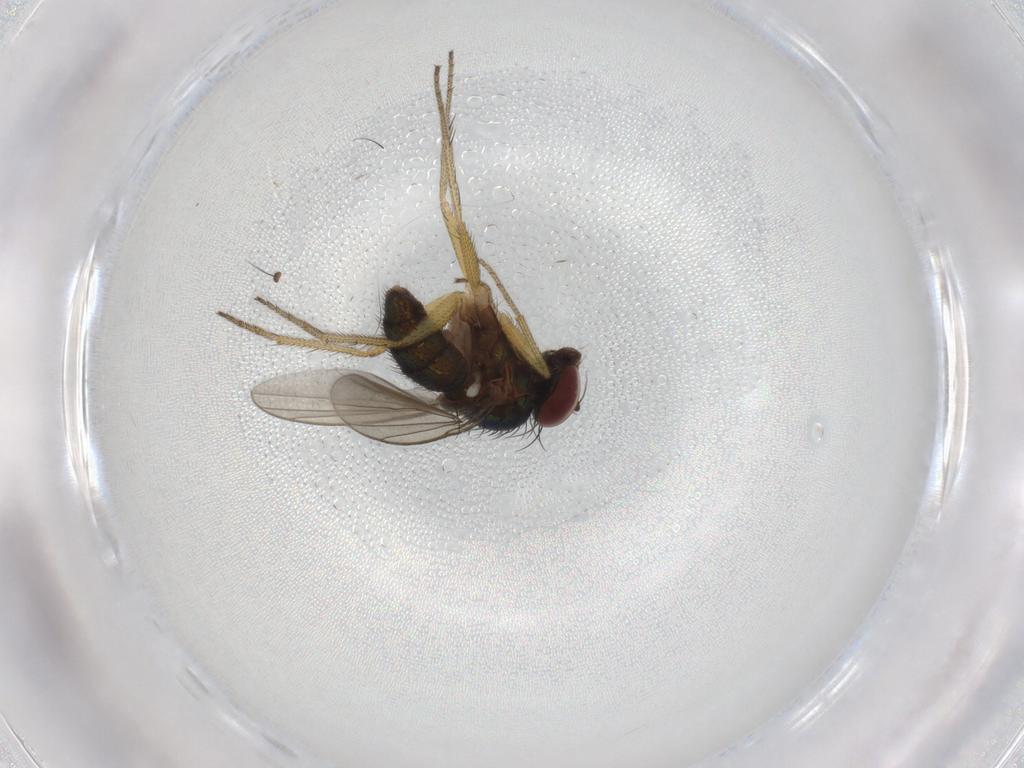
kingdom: Animalia
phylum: Arthropoda
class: Insecta
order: Diptera
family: Dolichopodidae
